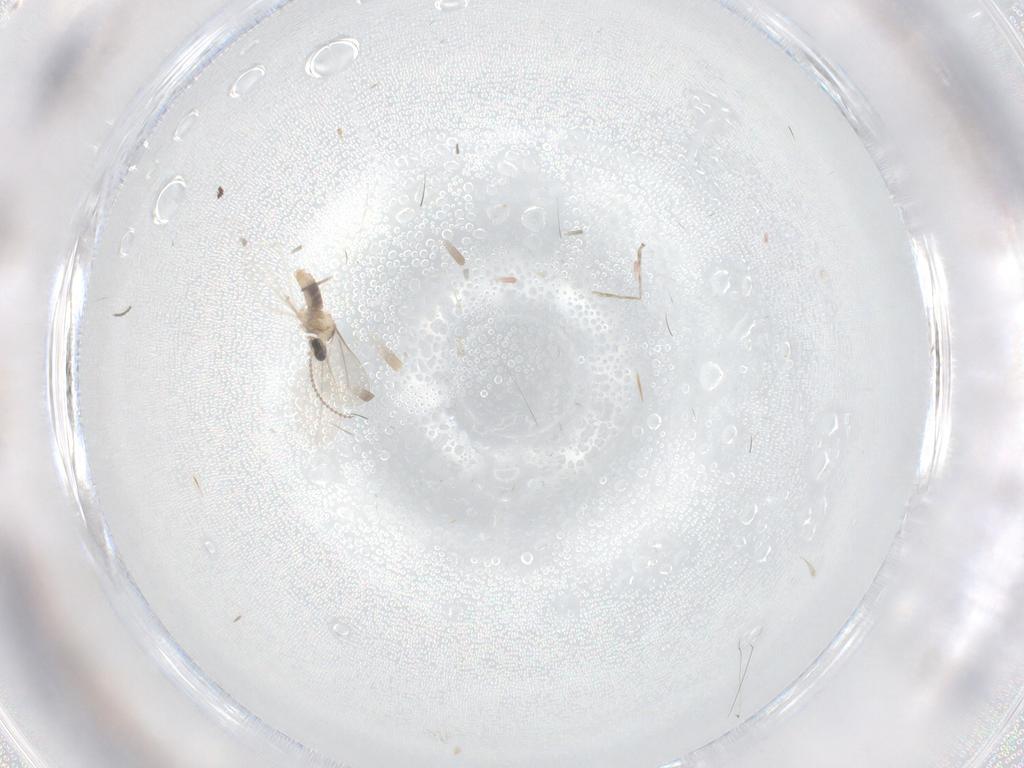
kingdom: Animalia
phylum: Arthropoda
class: Insecta
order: Diptera
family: Cecidomyiidae
